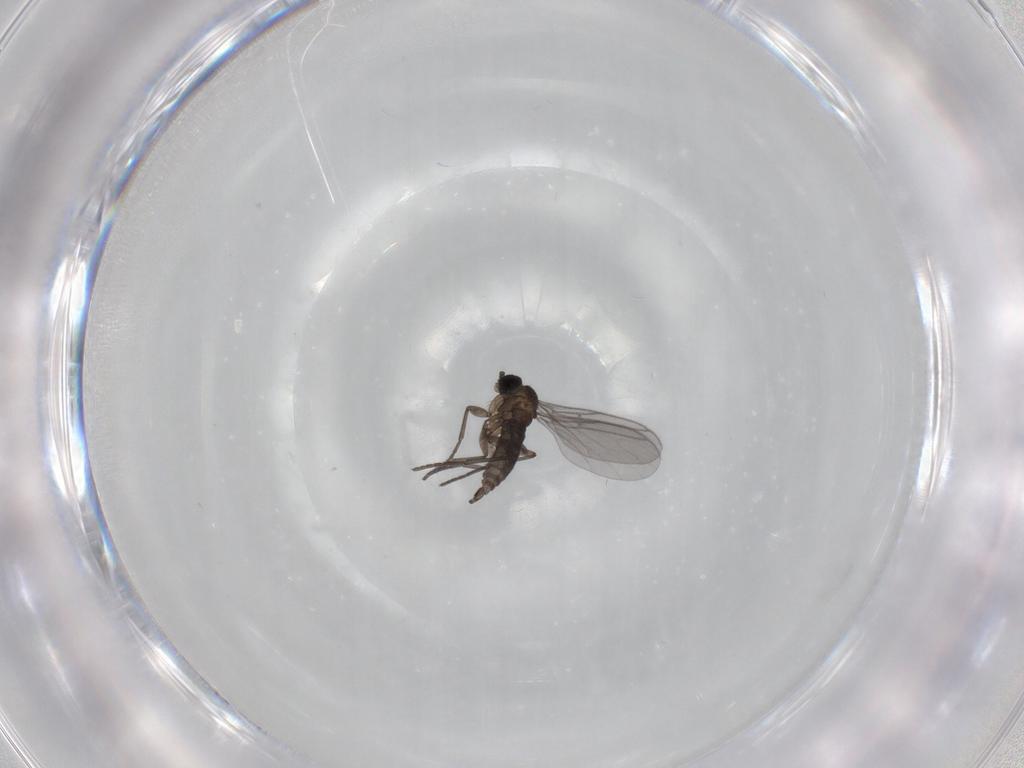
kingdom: Animalia
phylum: Arthropoda
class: Insecta
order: Diptera
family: Chironomidae
